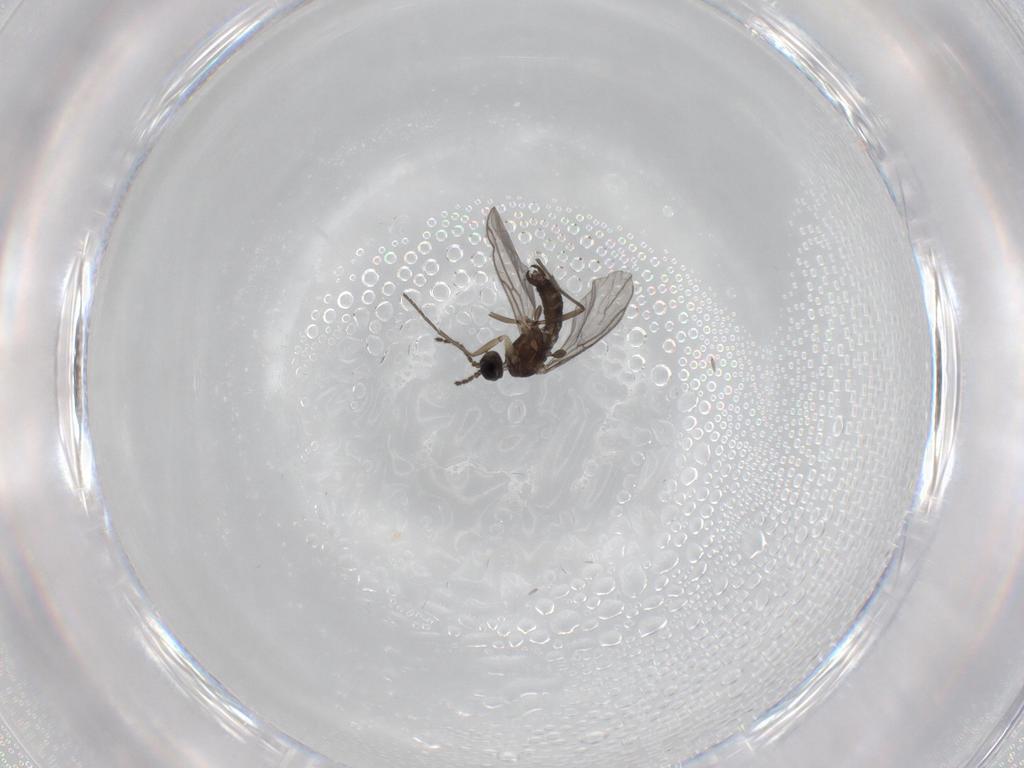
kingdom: Animalia
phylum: Arthropoda
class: Insecta
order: Diptera
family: Sciaridae
